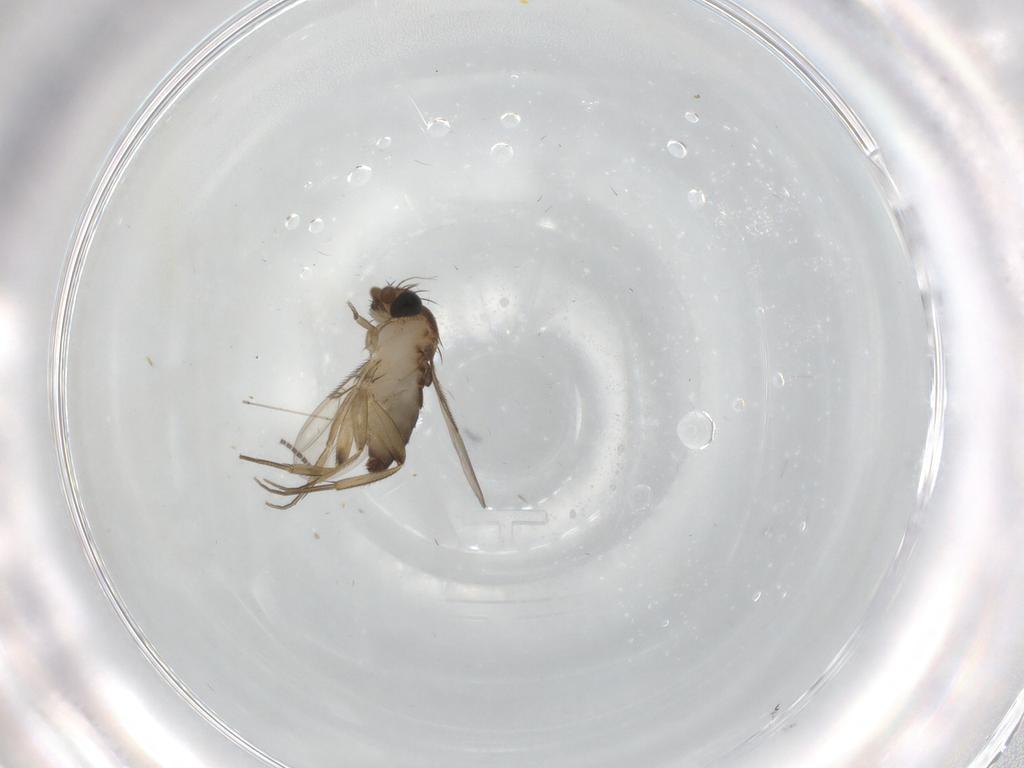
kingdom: Animalia
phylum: Arthropoda
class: Insecta
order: Diptera
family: Phoridae
